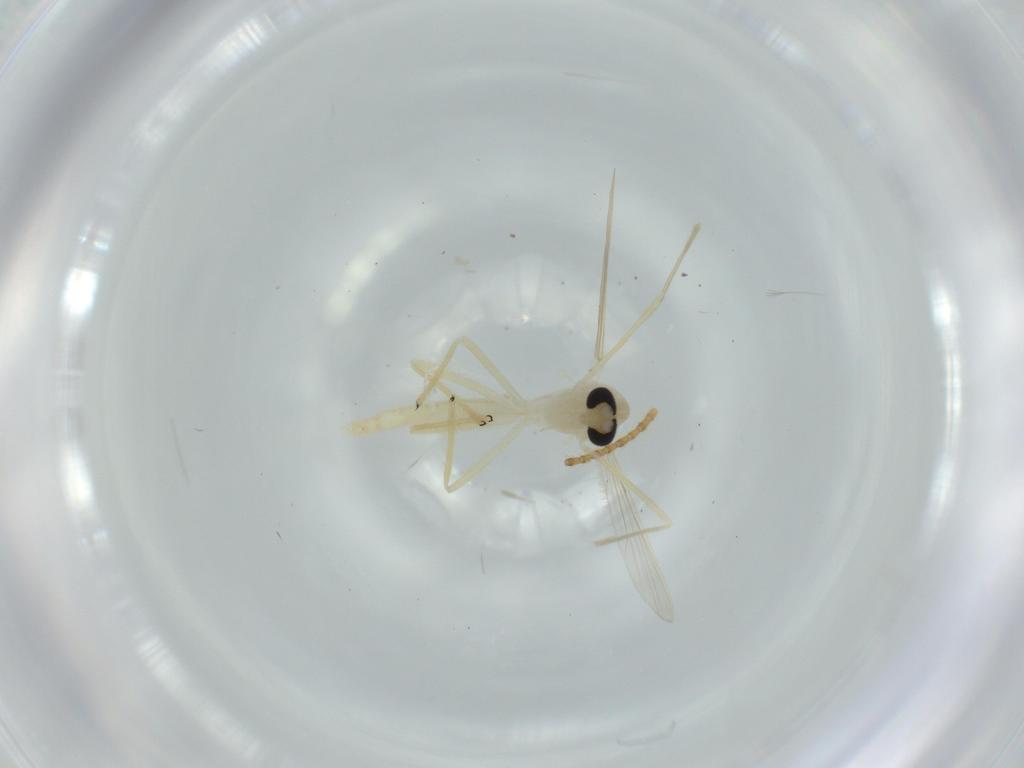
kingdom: Animalia
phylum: Arthropoda
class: Insecta
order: Diptera
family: Chironomidae
